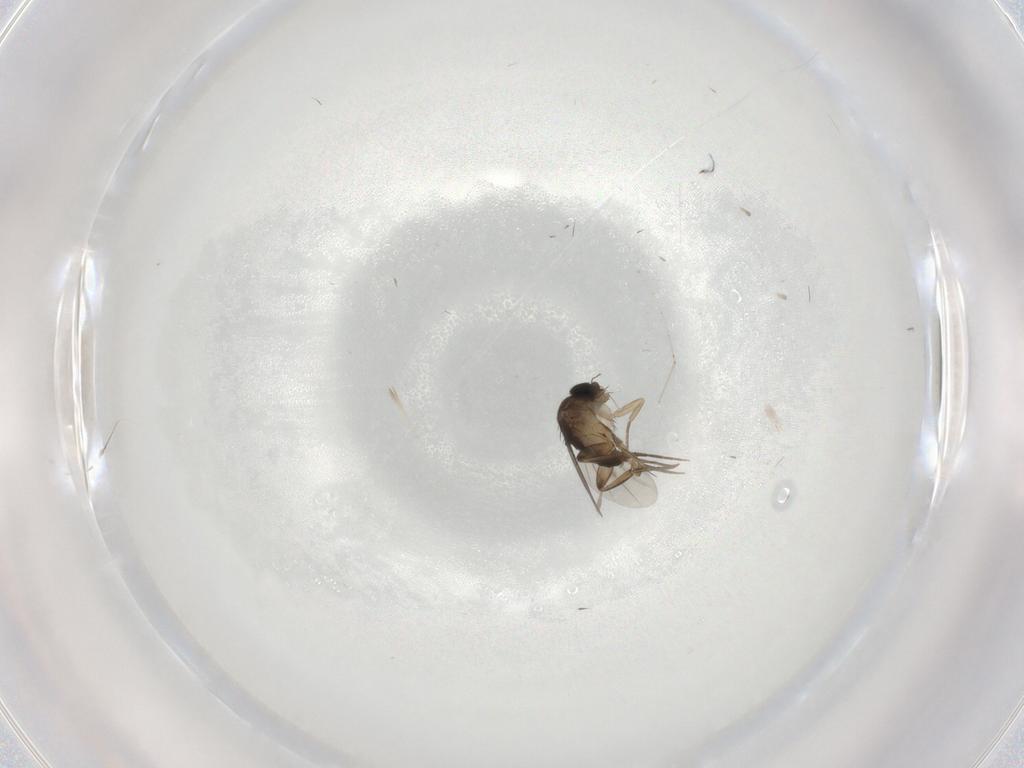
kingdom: Animalia
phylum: Arthropoda
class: Insecta
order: Diptera
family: Phoridae
